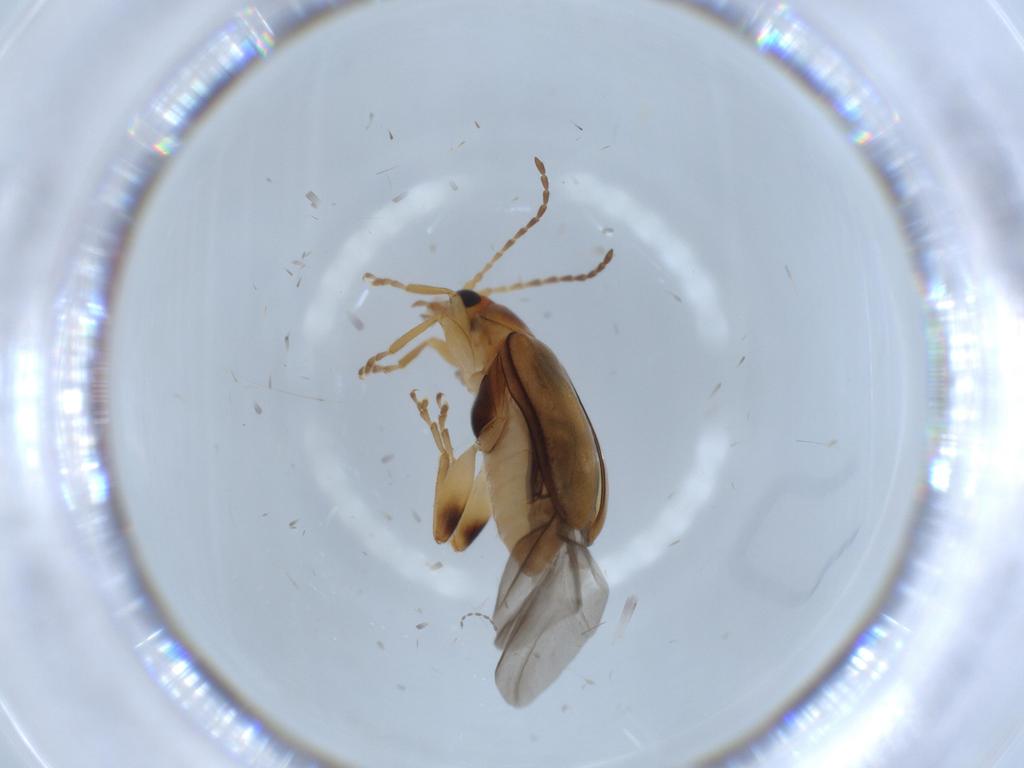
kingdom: Animalia
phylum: Arthropoda
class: Insecta
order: Coleoptera
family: Chrysomelidae
